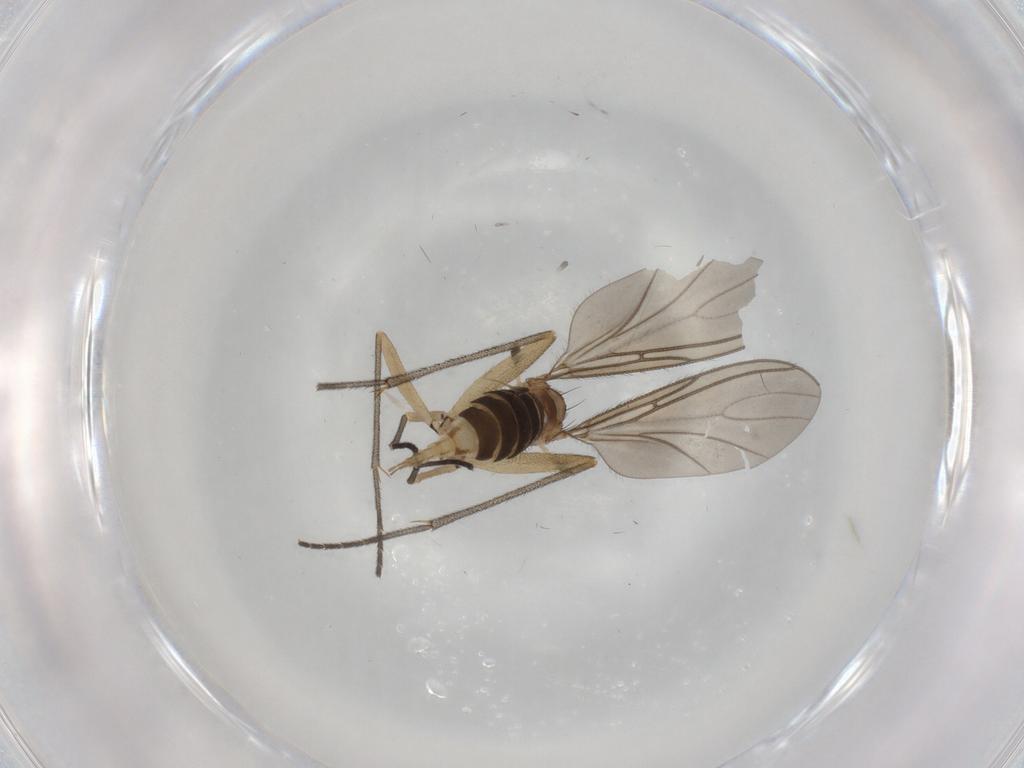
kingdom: Animalia
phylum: Arthropoda
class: Insecta
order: Diptera
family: Sciaridae
